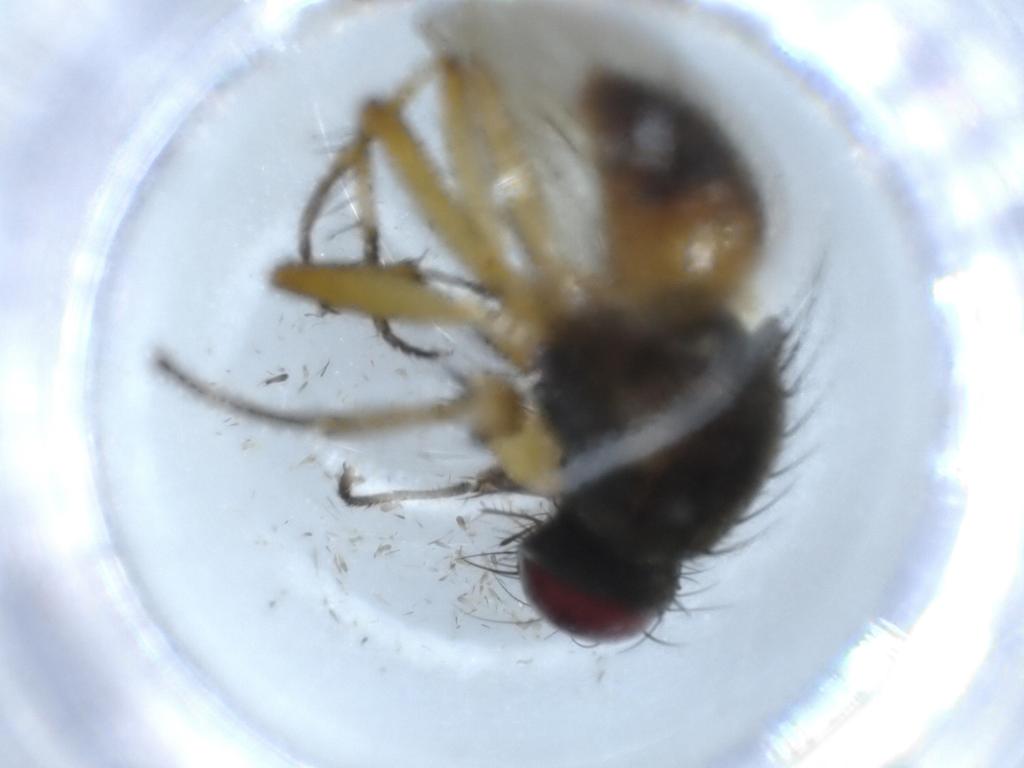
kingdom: Animalia
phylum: Arthropoda
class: Insecta
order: Diptera
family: Muscidae
